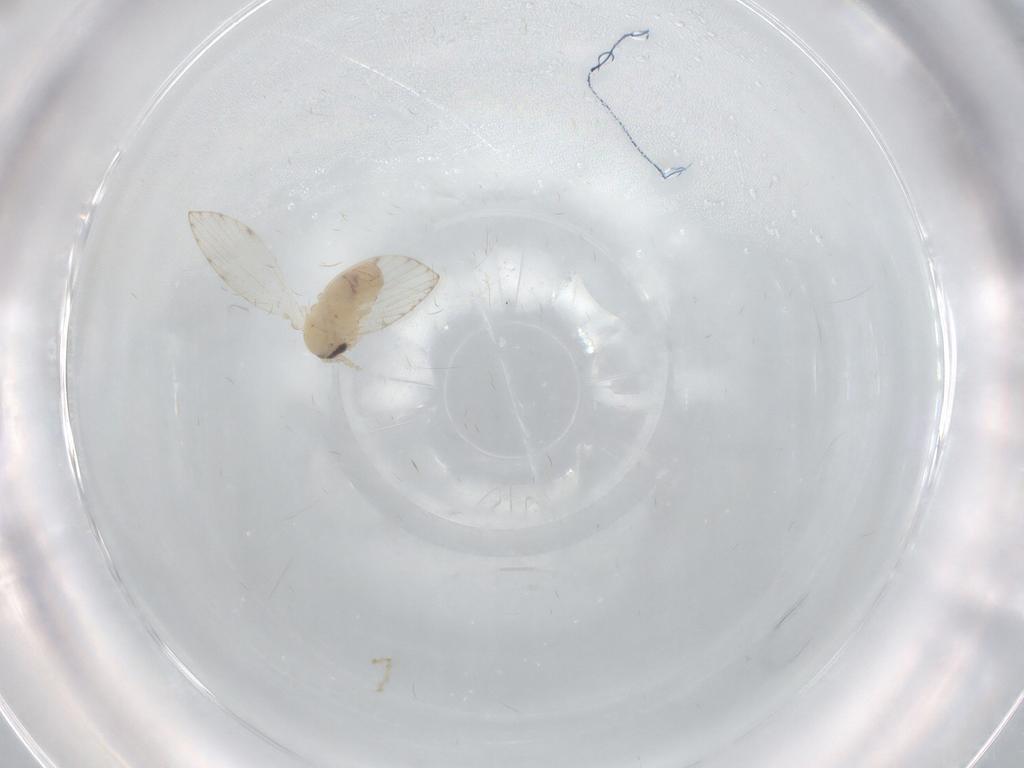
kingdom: Animalia
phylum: Arthropoda
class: Insecta
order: Diptera
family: Psychodidae
